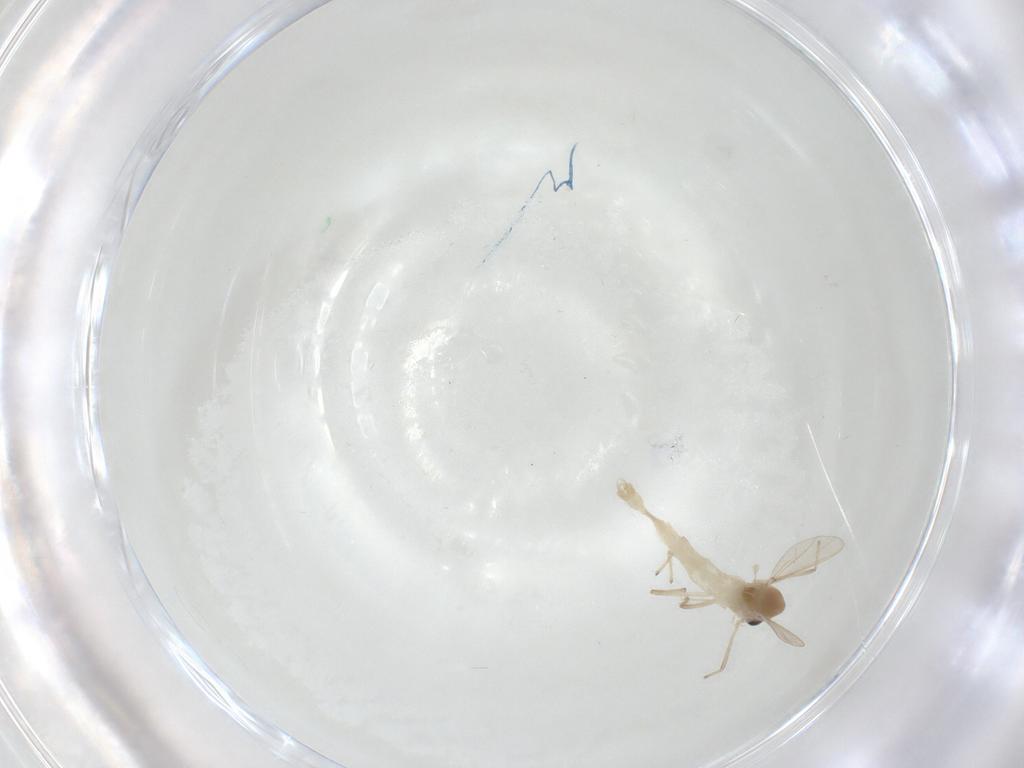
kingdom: Animalia
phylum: Arthropoda
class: Insecta
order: Diptera
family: Chironomidae
